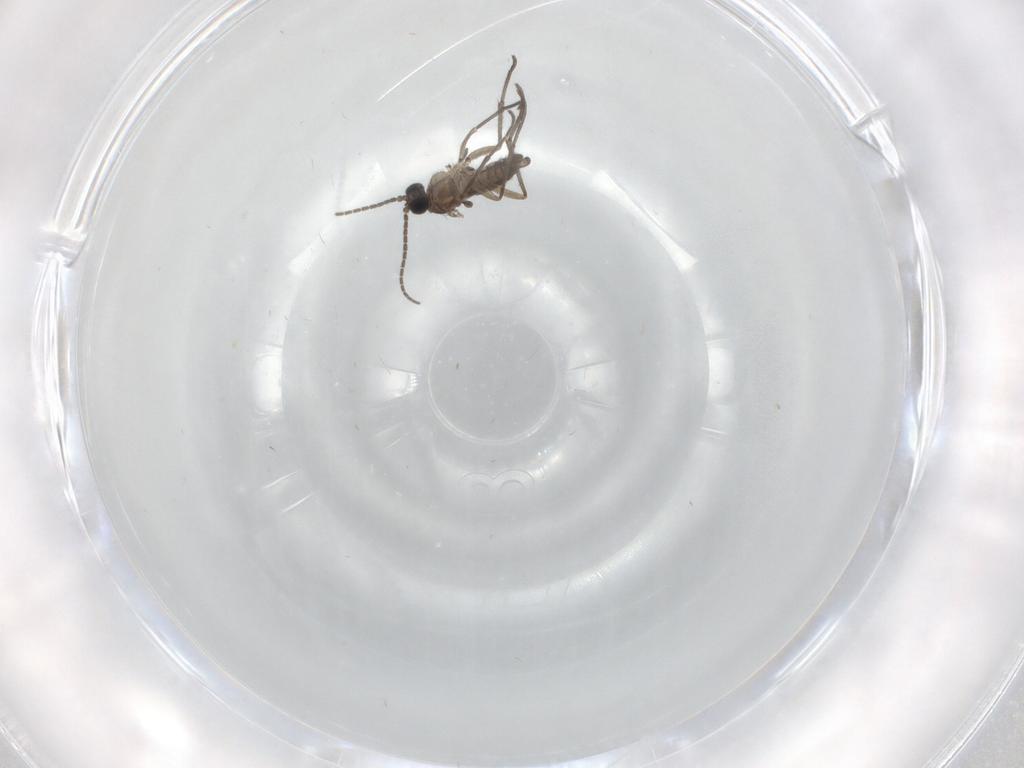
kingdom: Animalia
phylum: Arthropoda
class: Insecta
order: Diptera
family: Sciaridae
